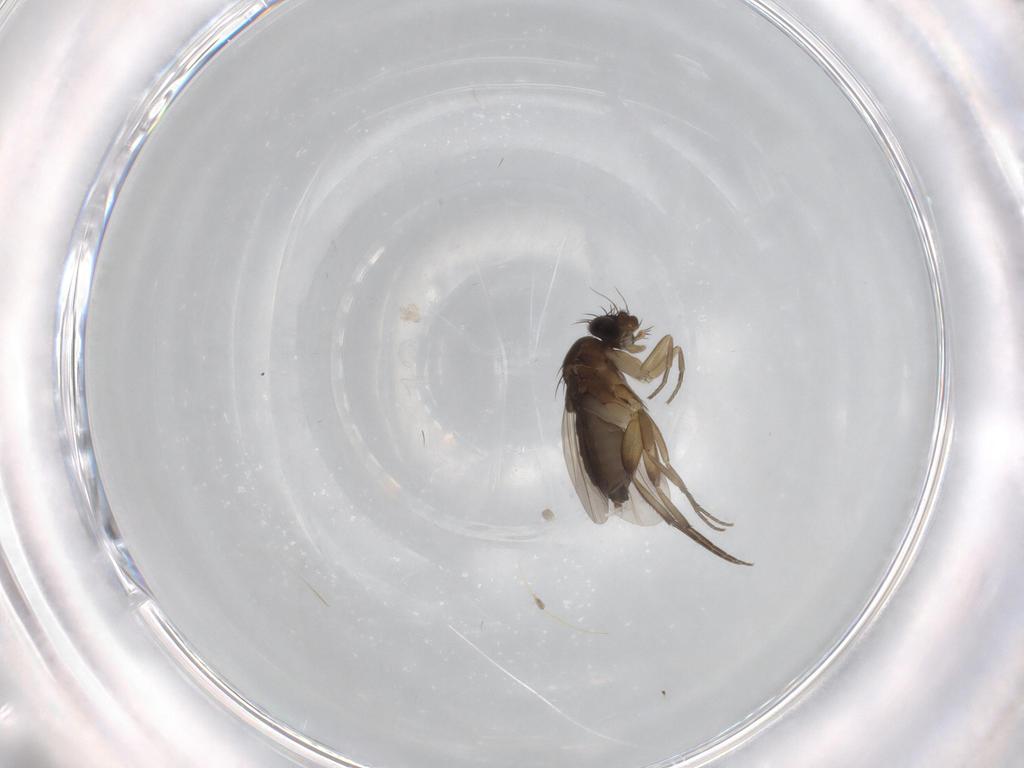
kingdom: Animalia
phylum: Arthropoda
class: Insecta
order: Diptera
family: Phoridae
